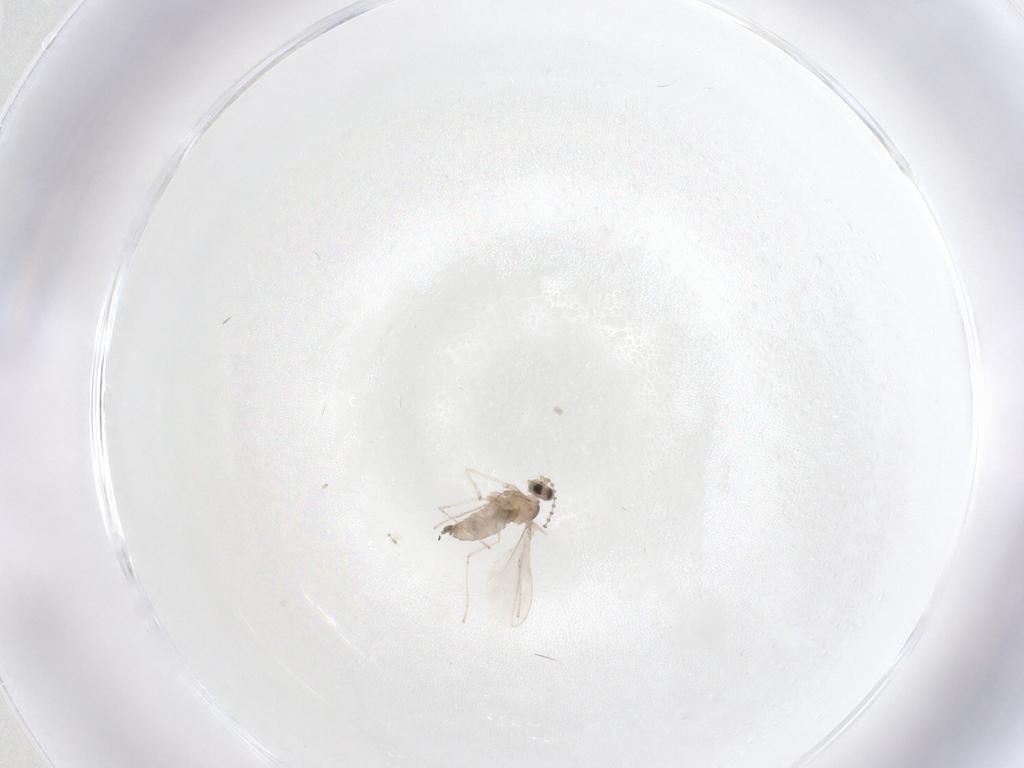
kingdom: Animalia
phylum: Arthropoda
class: Insecta
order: Diptera
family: Cecidomyiidae
